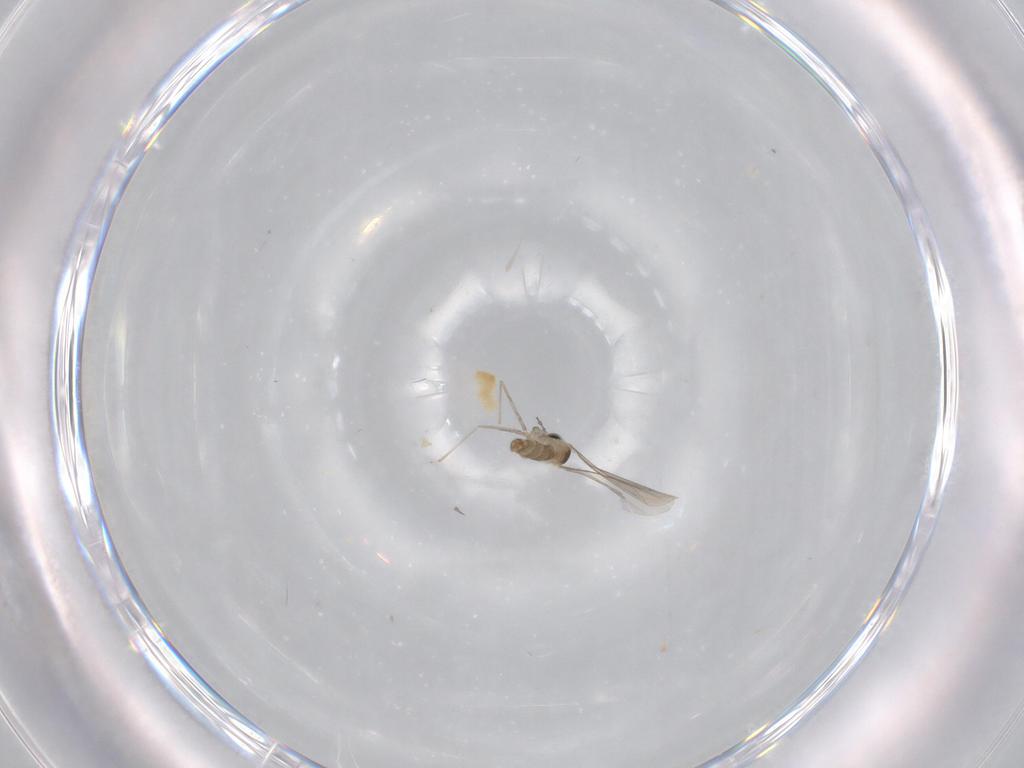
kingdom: Animalia
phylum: Arthropoda
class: Insecta
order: Diptera
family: Cecidomyiidae
